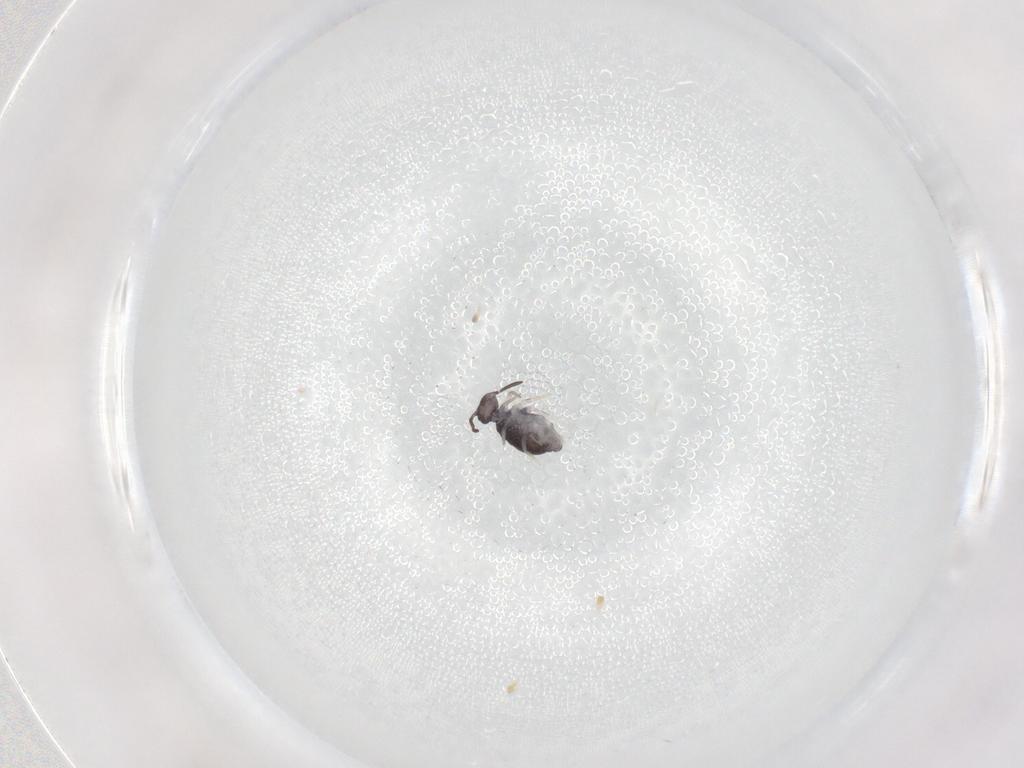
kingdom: Animalia
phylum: Arthropoda
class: Collembola
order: Symphypleona
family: Katiannidae
